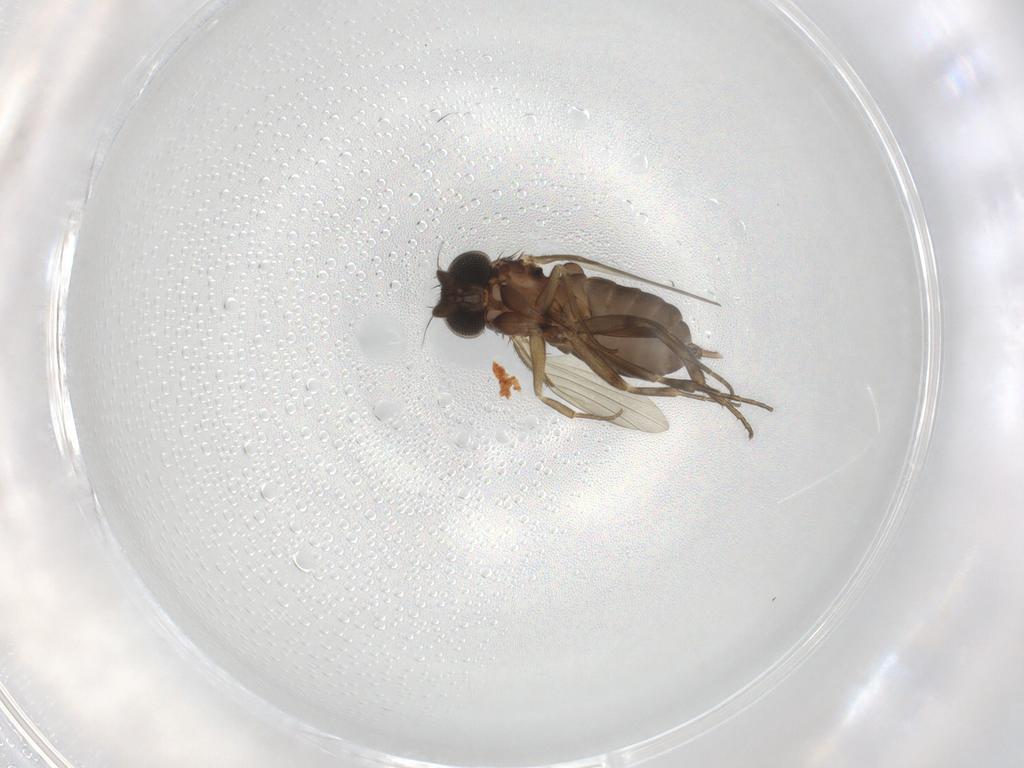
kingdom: Animalia
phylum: Arthropoda
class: Insecta
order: Diptera
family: Phoridae
